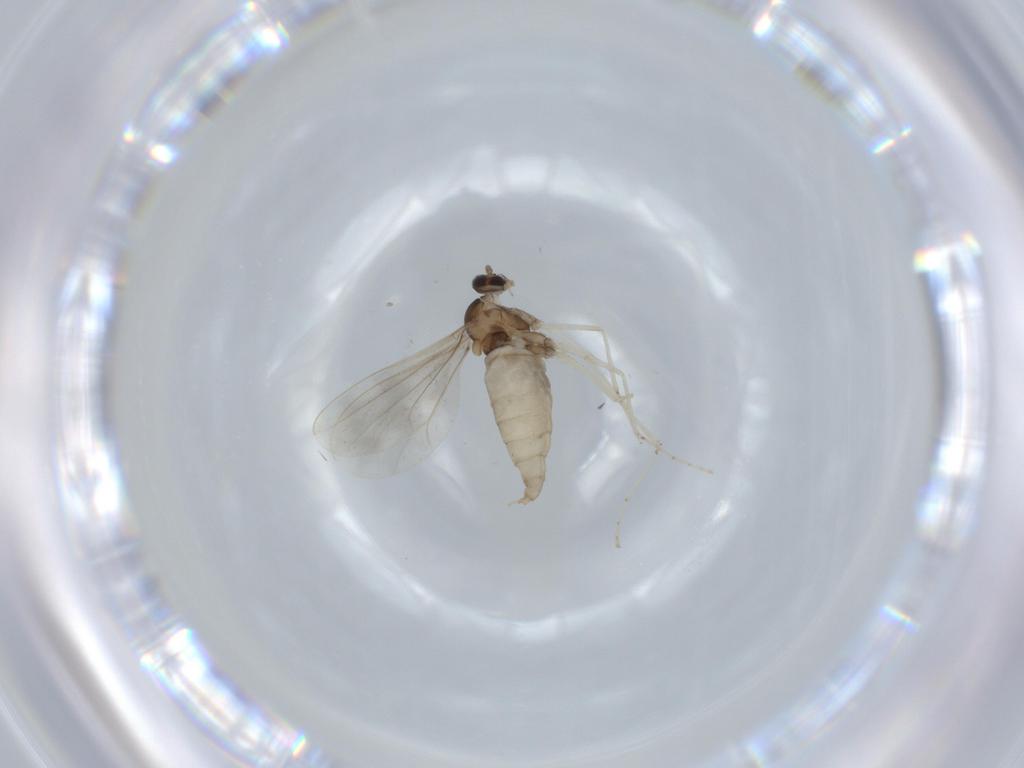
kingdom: Animalia
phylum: Arthropoda
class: Insecta
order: Diptera
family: Cecidomyiidae
